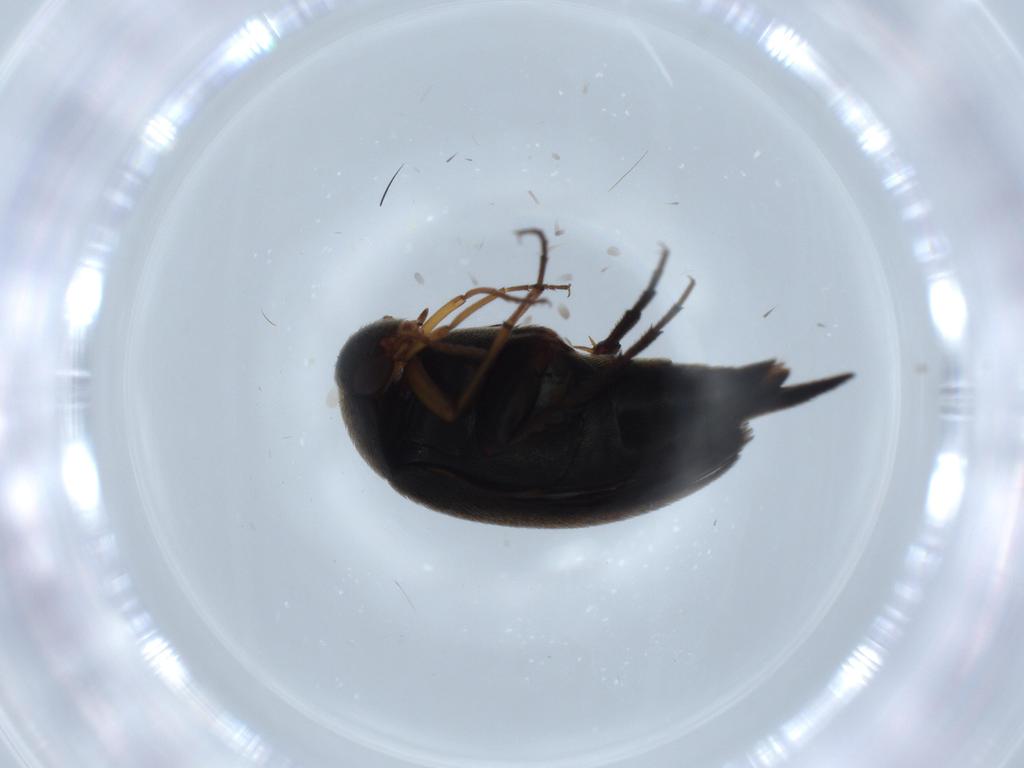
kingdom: Animalia
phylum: Arthropoda
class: Insecta
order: Coleoptera
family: Mordellidae
